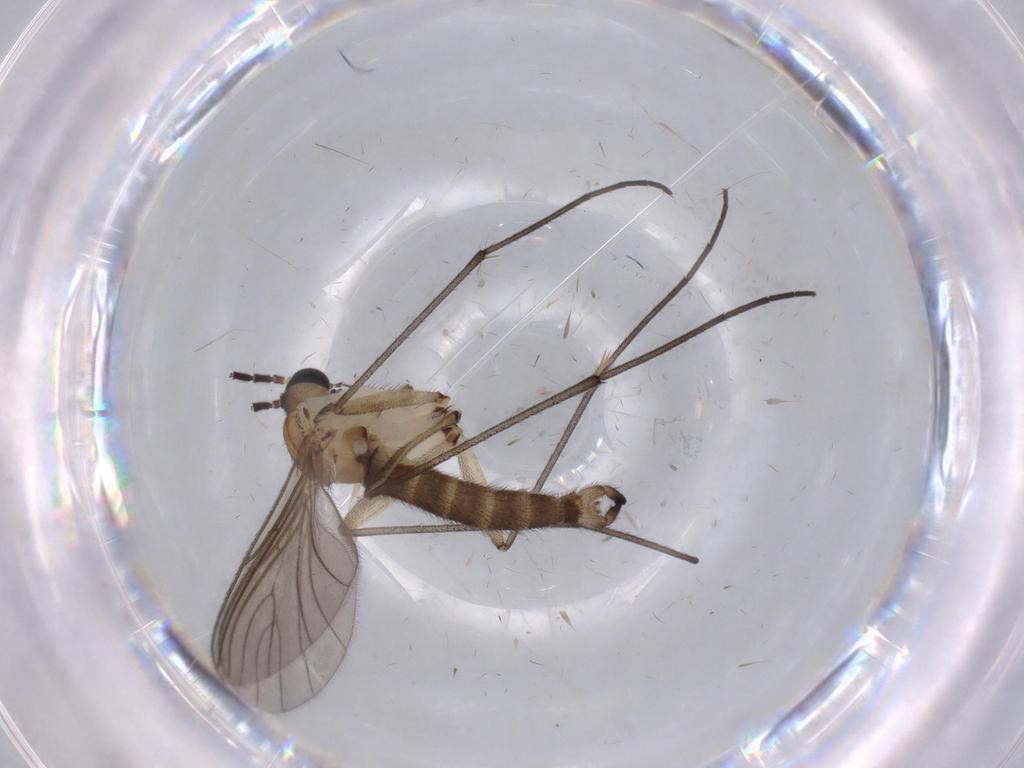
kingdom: Animalia
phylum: Arthropoda
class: Insecta
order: Diptera
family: Sciaridae
